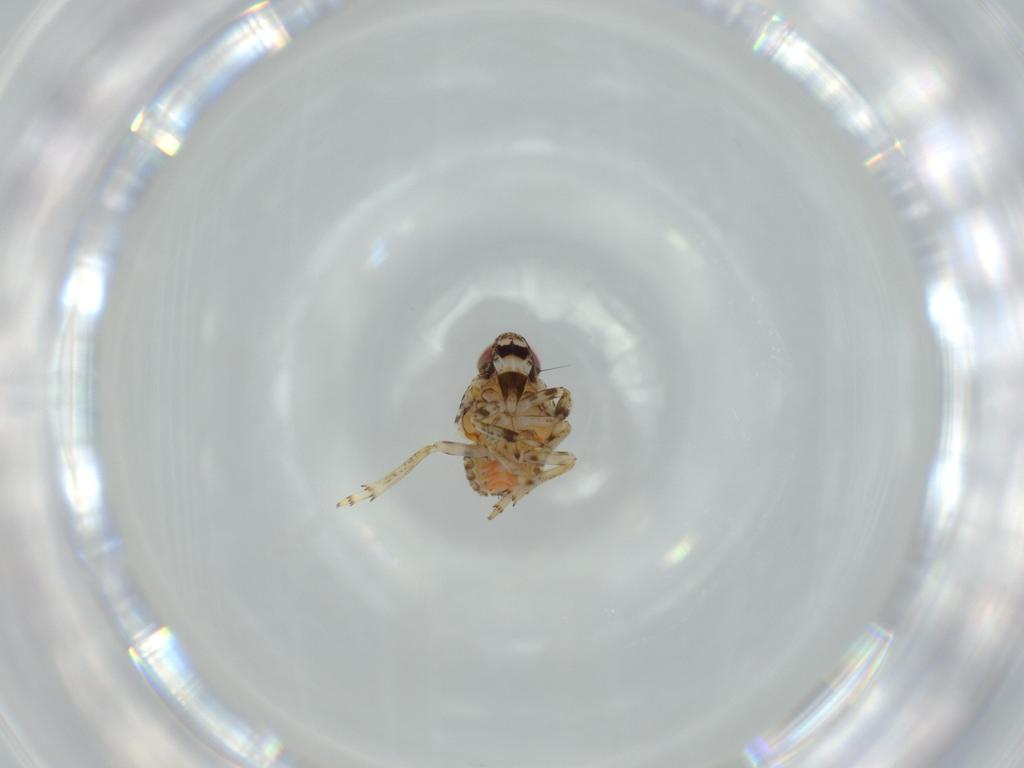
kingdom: Animalia
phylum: Arthropoda
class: Insecta
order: Hemiptera
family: Issidae
